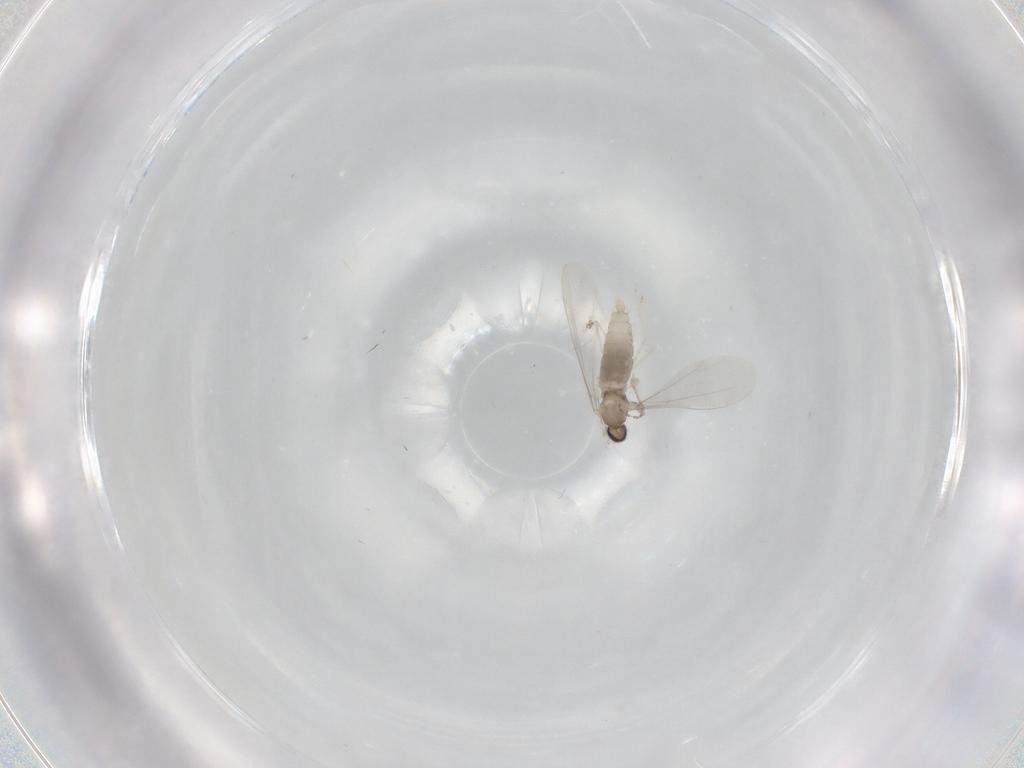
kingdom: Animalia
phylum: Arthropoda
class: Insecta
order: Diptera
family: Cecidomyiidae
